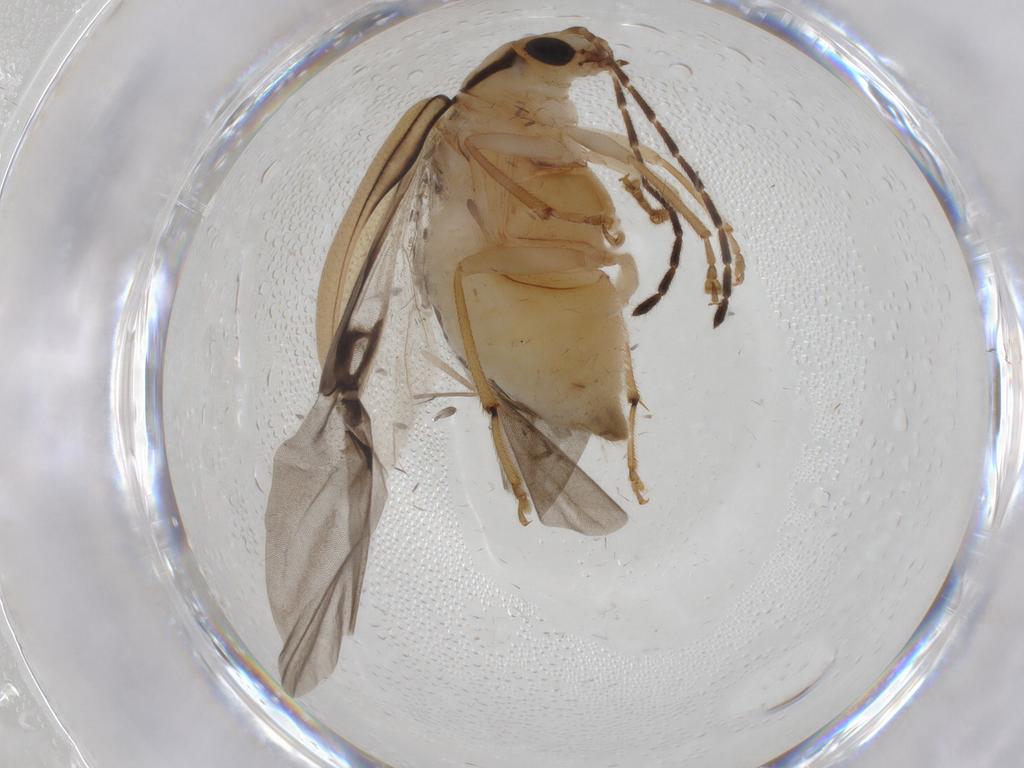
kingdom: Animalia
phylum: Arthropoda
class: Insecta
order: Coleoptera
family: Chrysomelidae
